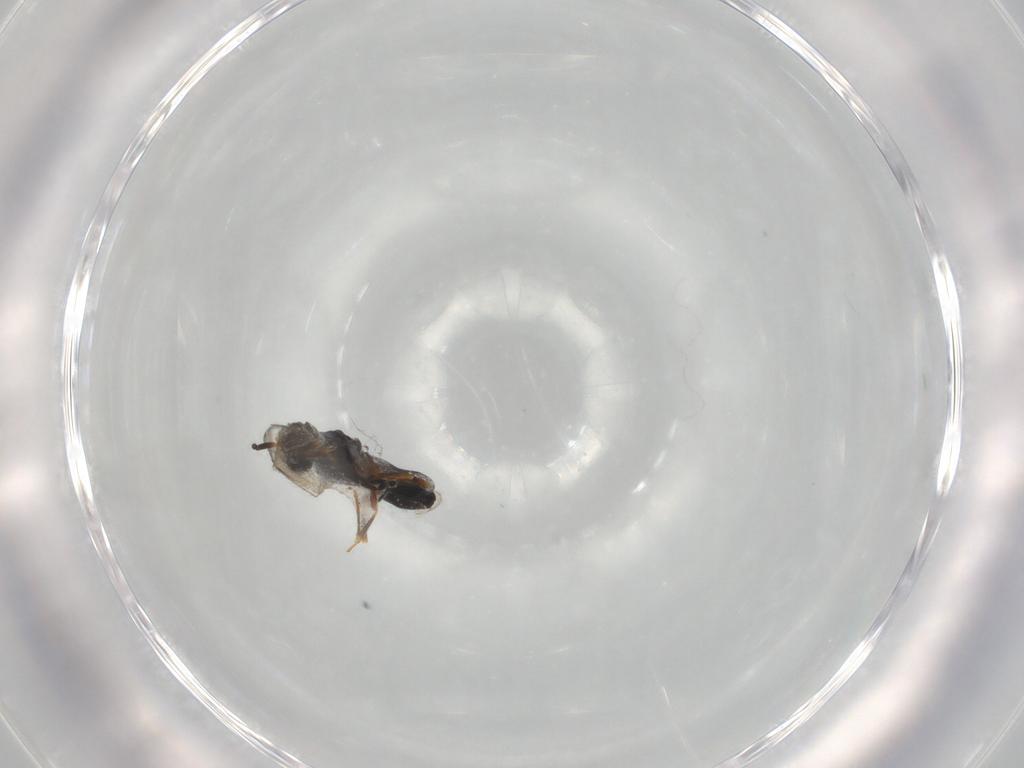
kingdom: Animalia
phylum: Arthropoda
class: Insecta
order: Hymenoptera
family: Scelionidae
